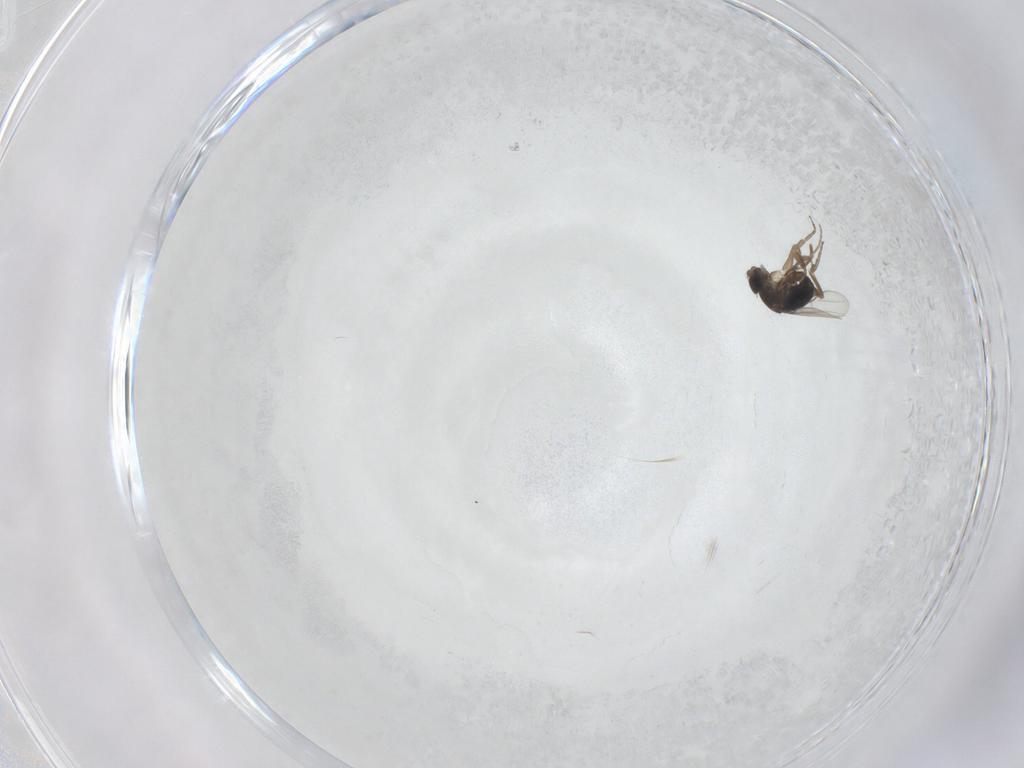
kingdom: Animalia
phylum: Arthropoda
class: Insecta
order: Diptera
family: Phoridae
